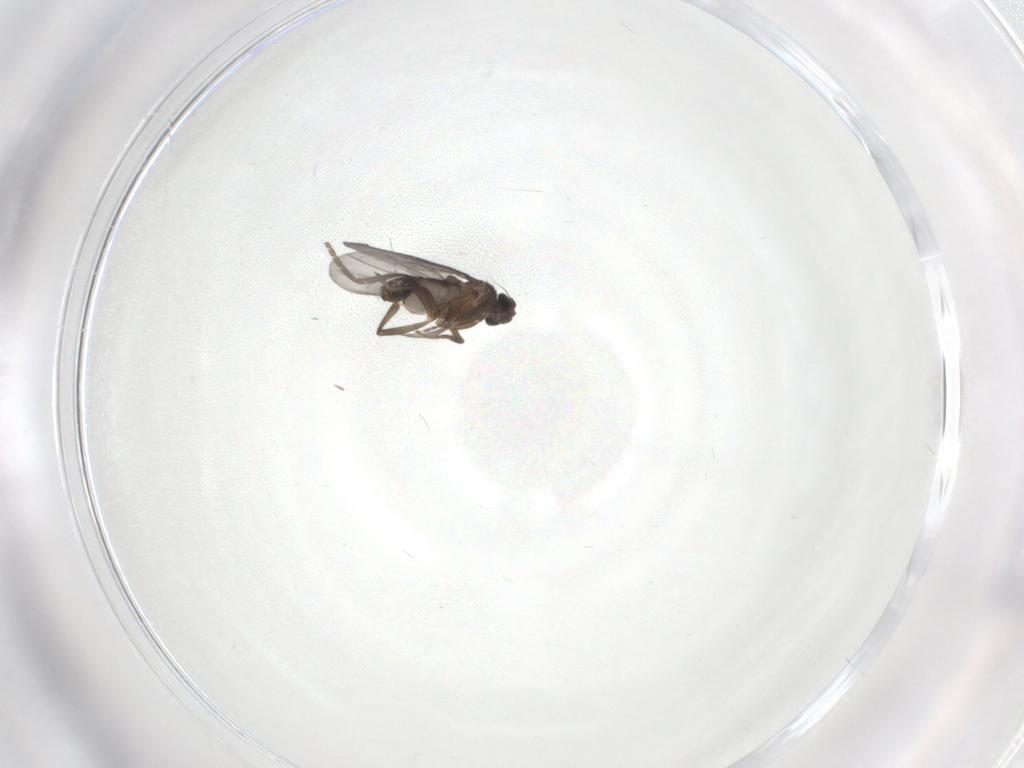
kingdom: Animalia
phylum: Arthropoda
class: Insecta
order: Diptera
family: Phoridae
